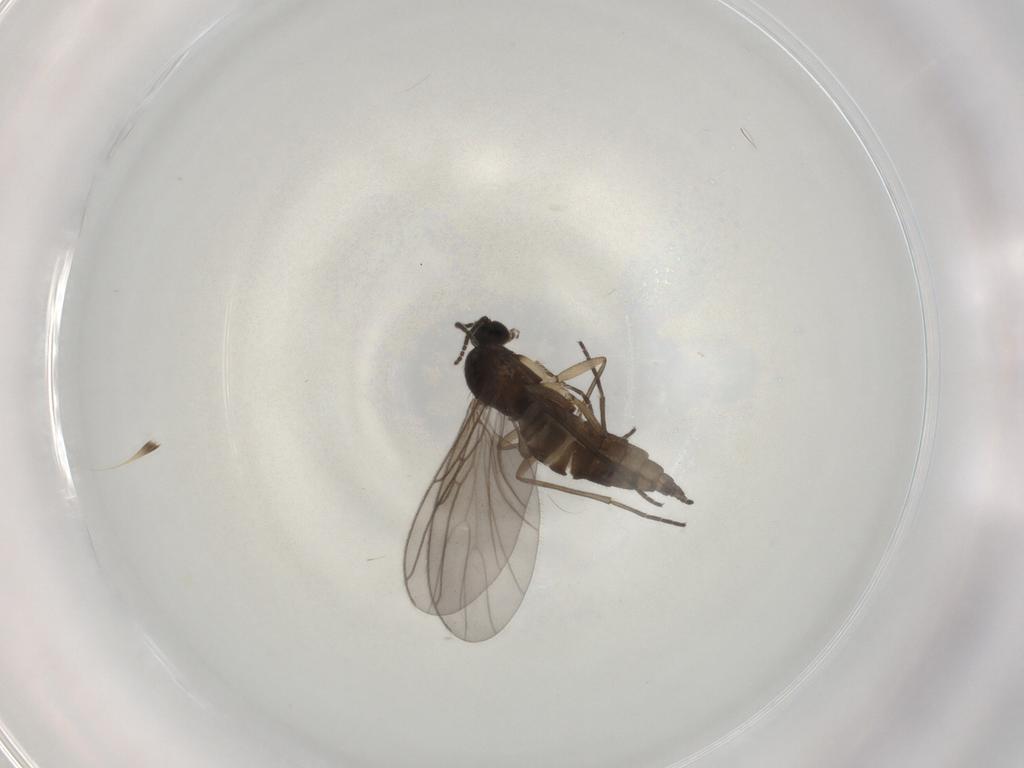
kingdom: Animalia
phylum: Arthropoda
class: Insecta
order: Diptera
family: Sciaridae
